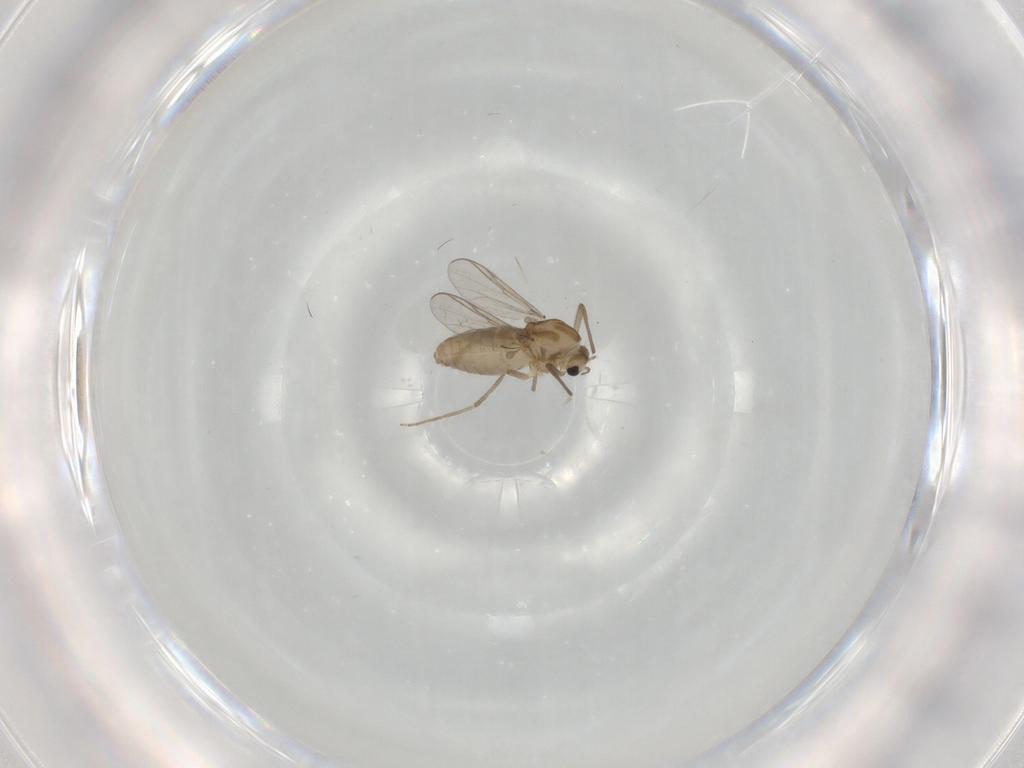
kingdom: Animalia
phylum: Arthropoda
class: Insecta
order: Diptera
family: Chironomidae
